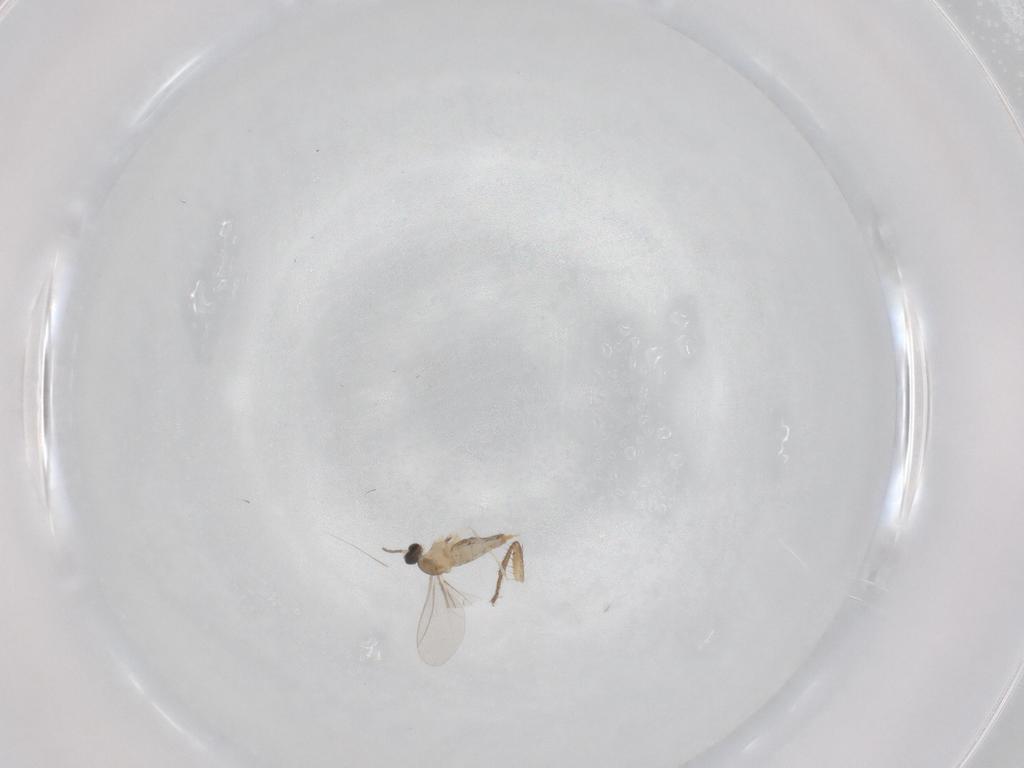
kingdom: Animalia
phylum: Arthropoda
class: Insecta
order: Diptera
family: Cecidomyiidae
